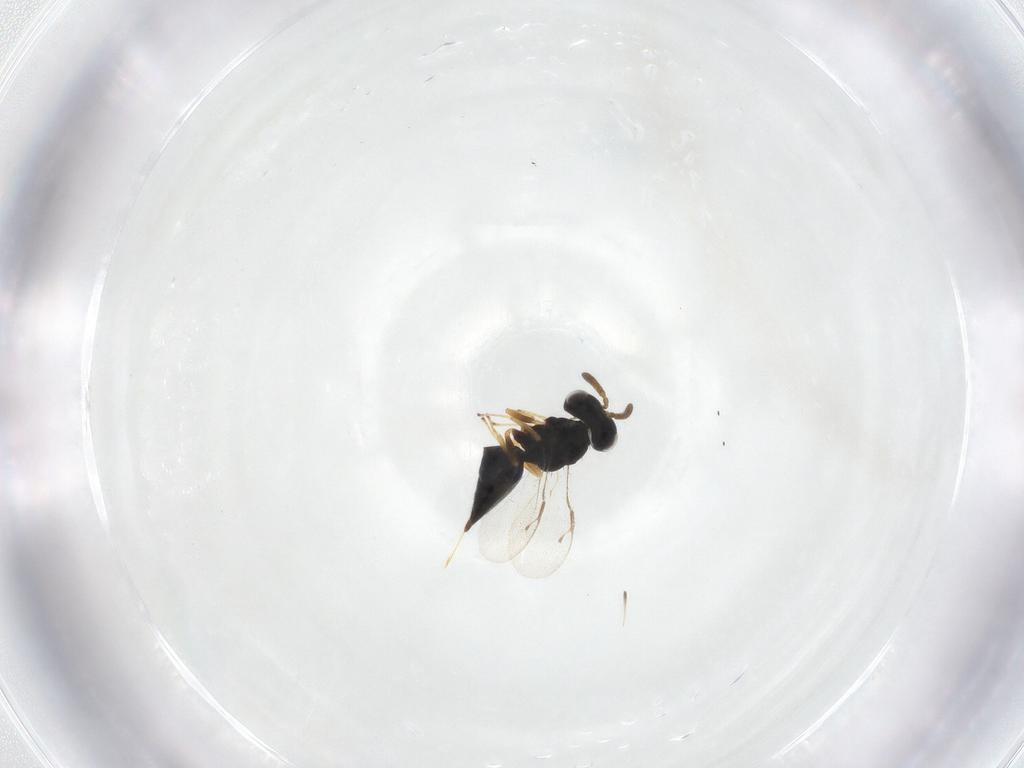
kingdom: Animalia
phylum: Arthropoda
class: Insecta
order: Hymenoptera
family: Pteromalidae
